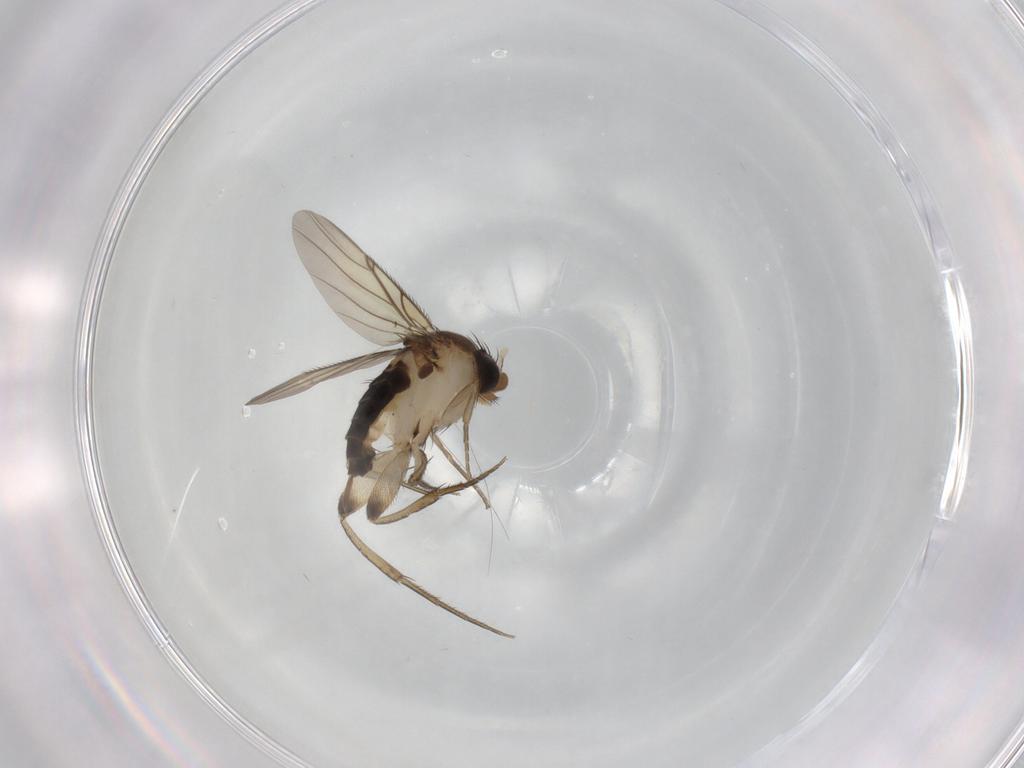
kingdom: Animalia
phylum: Arthropoda
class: Insecta
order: Diptera
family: Phoridae
